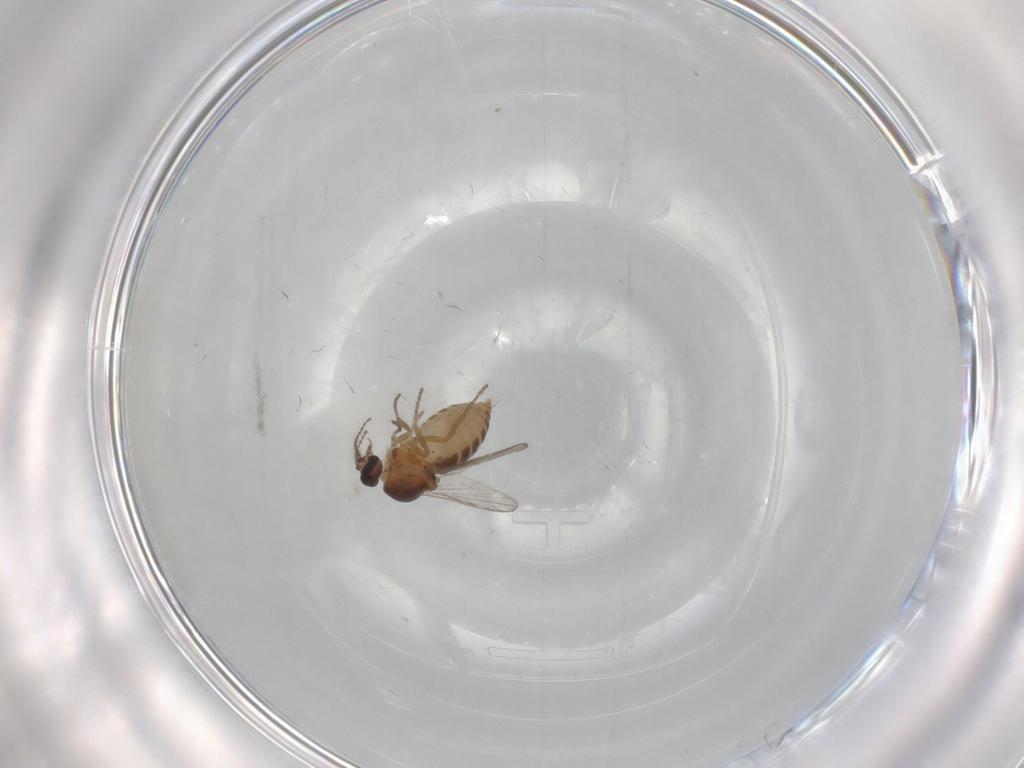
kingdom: Animalia
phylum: Arthropoda
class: Insecta
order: Diptera
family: Ceratopogonidae
